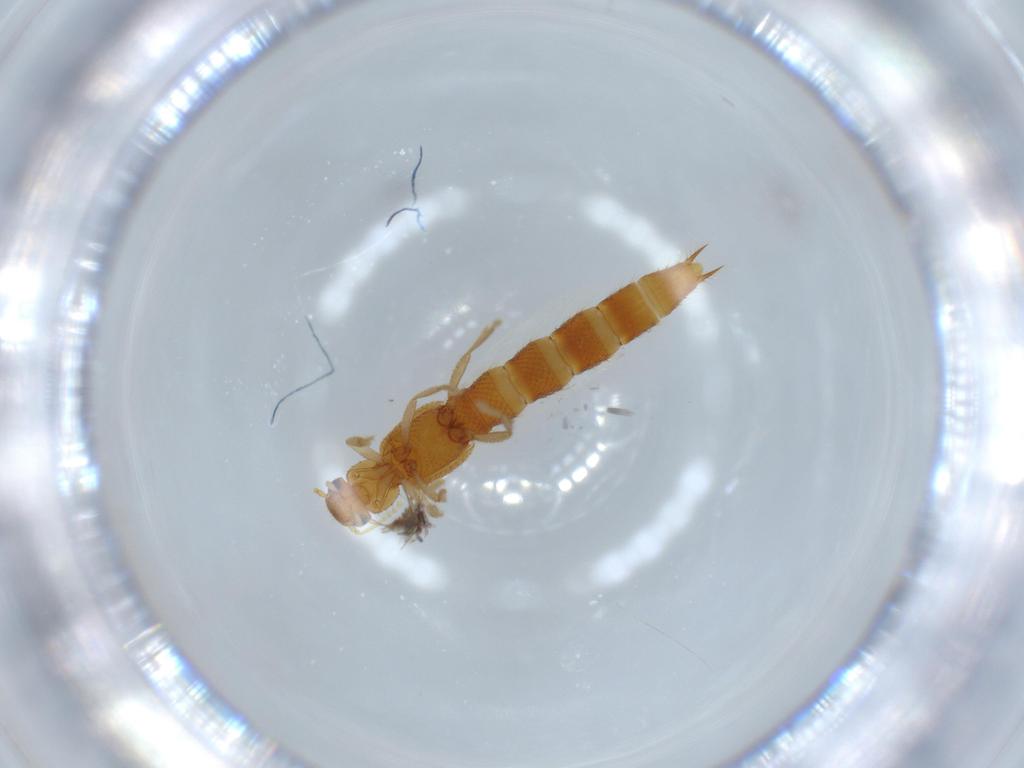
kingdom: Animalia
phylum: Arthropoda
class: Insecta
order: Coleoptera
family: Staphylinidae
